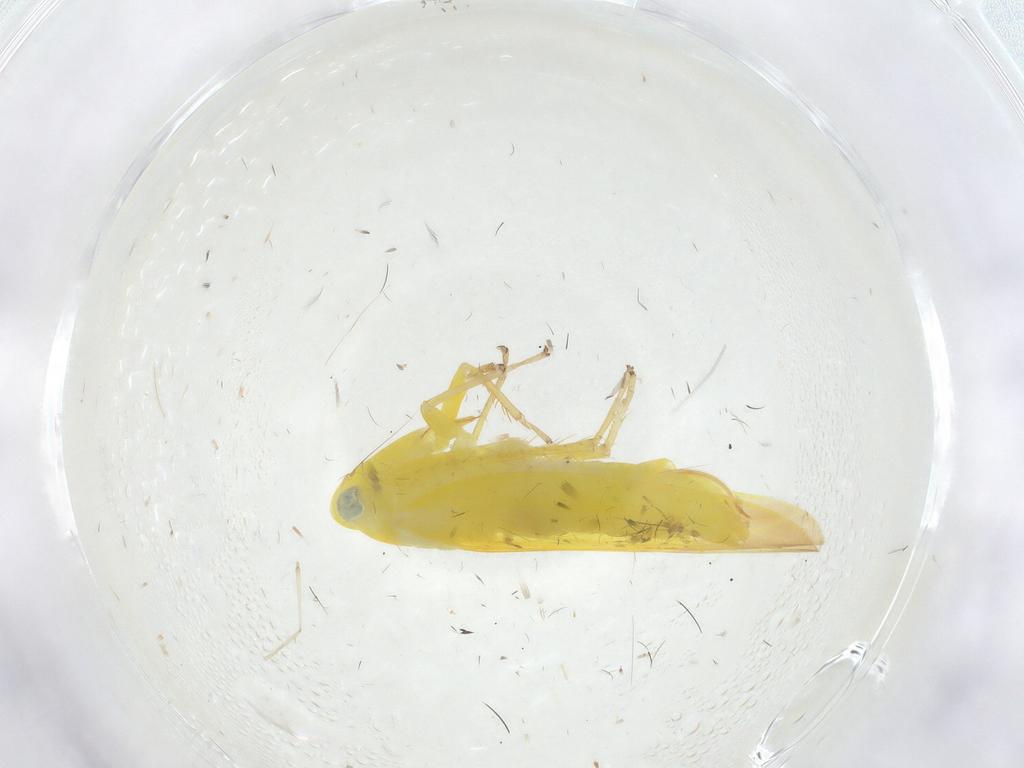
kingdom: Animalia
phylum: Arthropoda
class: Insecta
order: Hemiptera
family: Cicadellidae
